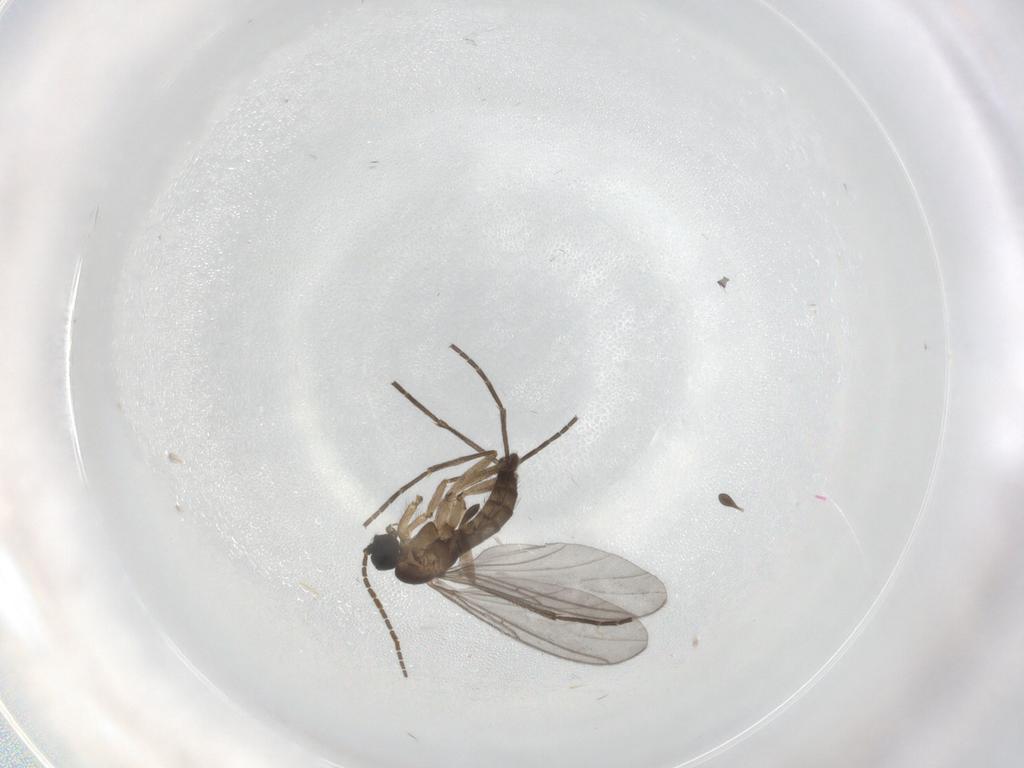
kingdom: Animalia
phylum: Arthropoda
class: Insecta
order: Diptera
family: Sciaridae
